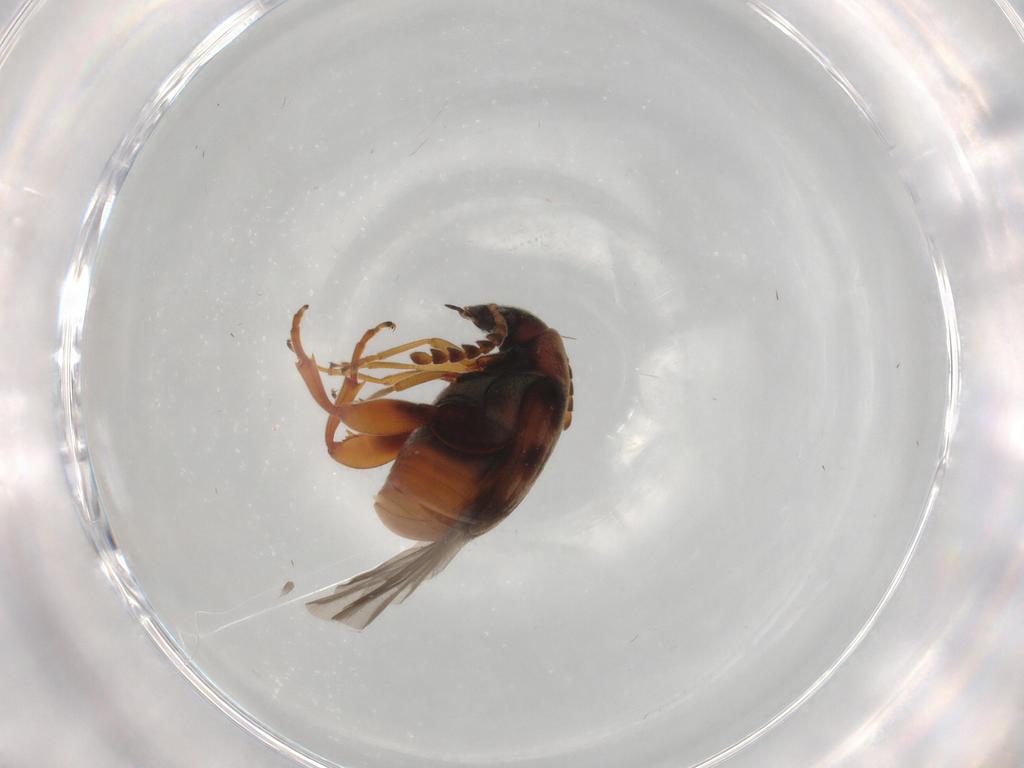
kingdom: Animalia
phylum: Arthropoda
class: Insecta
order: Coleoptera
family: Chrysomelidae
